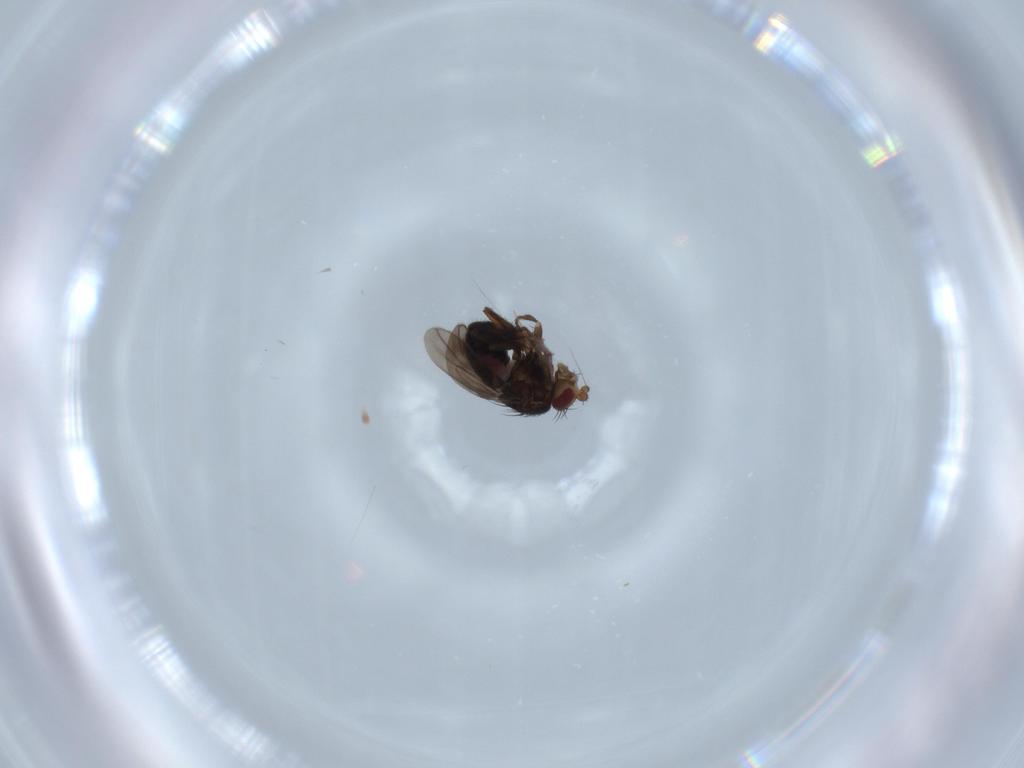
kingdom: Animalia
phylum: Arthropoda
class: Insecta
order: Diptera
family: Sphaeroceridae
